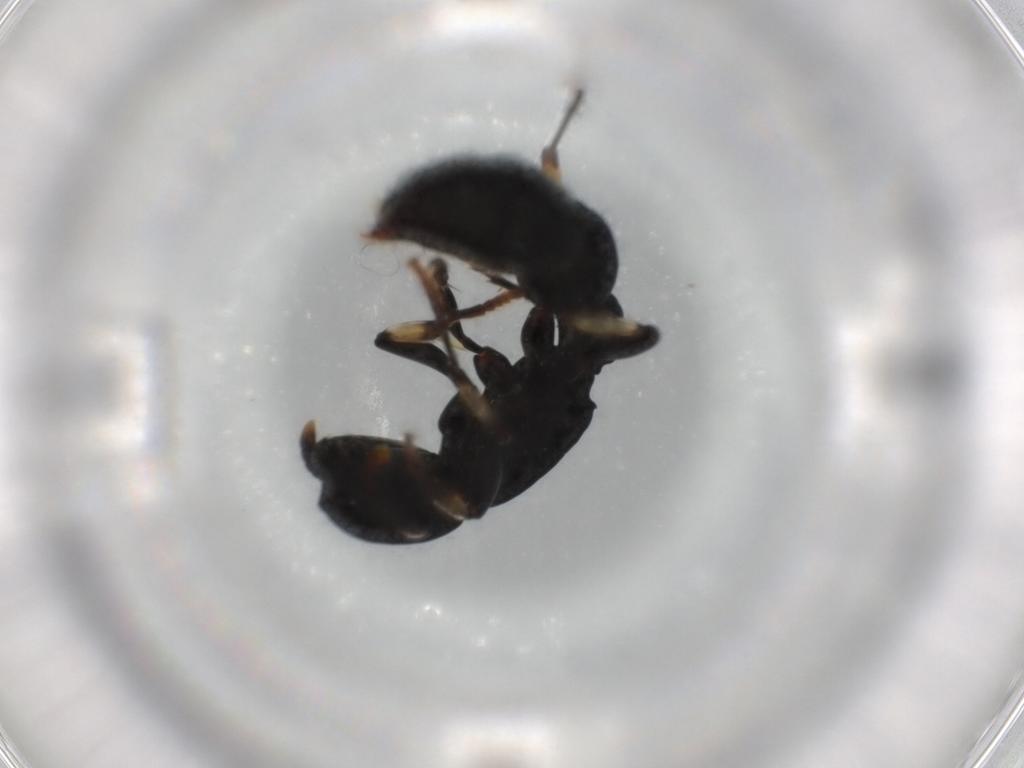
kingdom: Animalia
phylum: Arthropoda
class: Insecta
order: Hymenoptera
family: Formicidae
